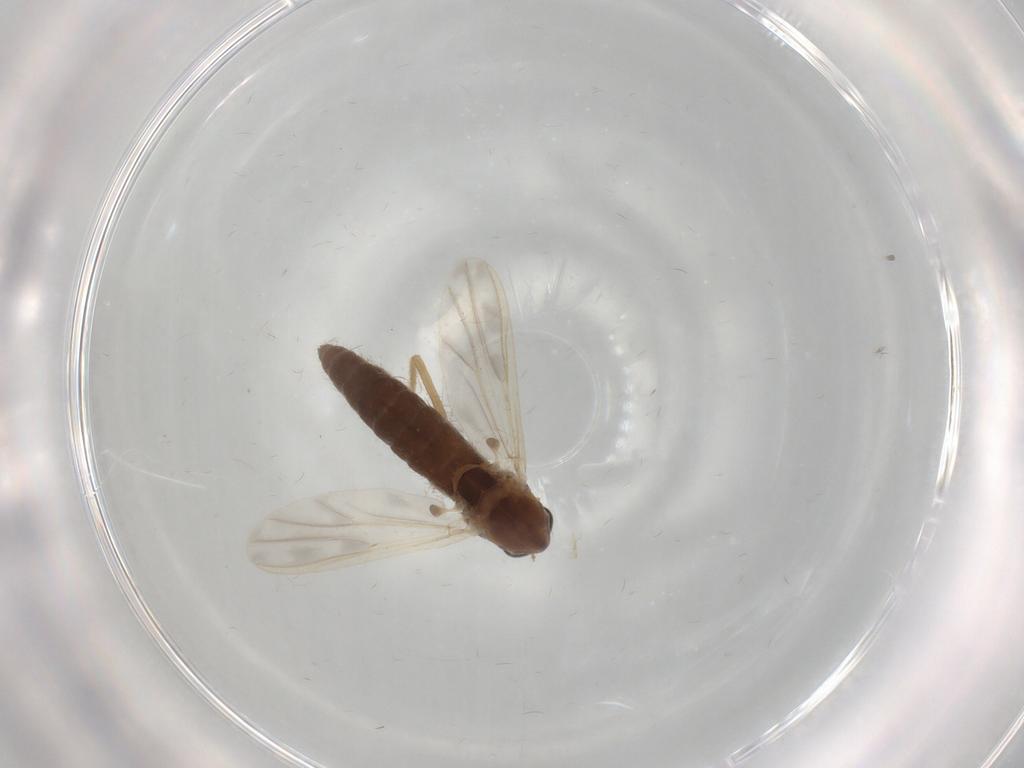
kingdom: Animalia
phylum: Arthropoda
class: Insecta
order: Diptera
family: Chironomidae
